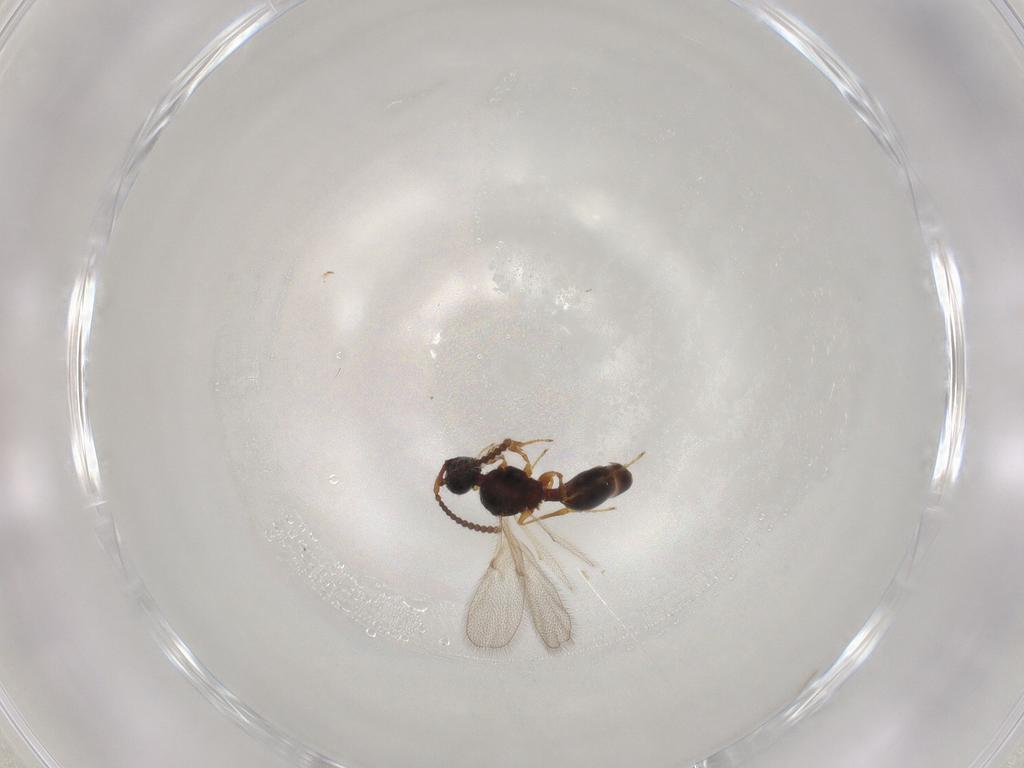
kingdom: Animalia
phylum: Arthropoda
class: Insecta
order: Hymenoptera
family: Diapriidae
